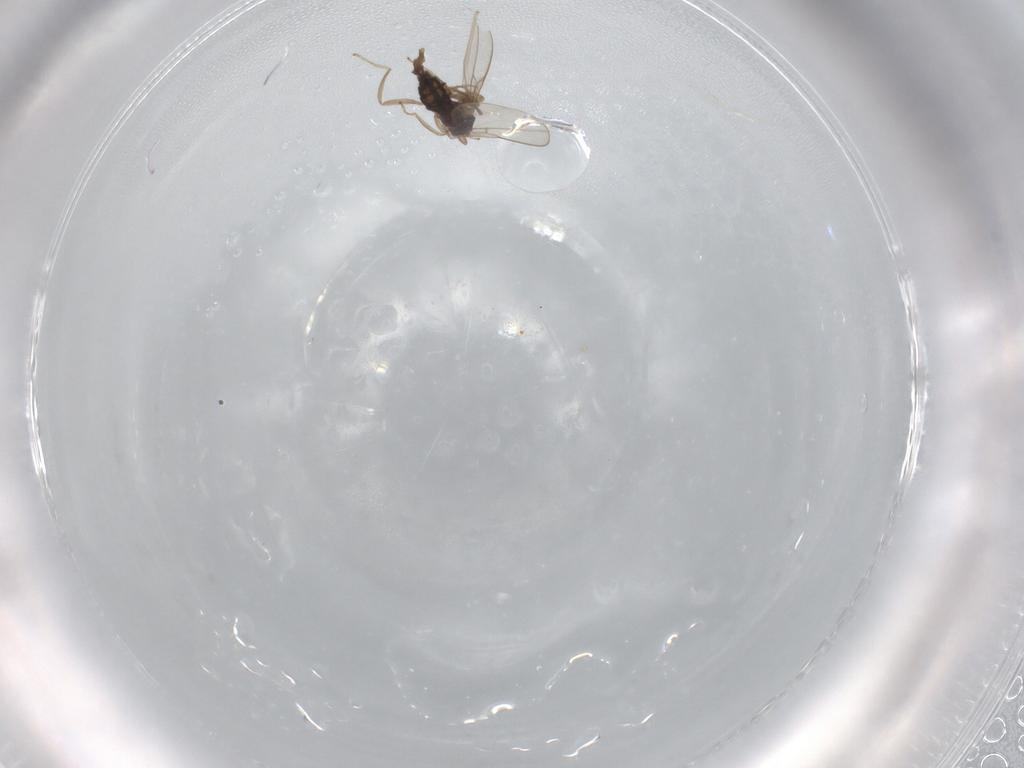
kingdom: Animalia
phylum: Arthropoda
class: Insecta
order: Diptera
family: Cecidomyiidae
